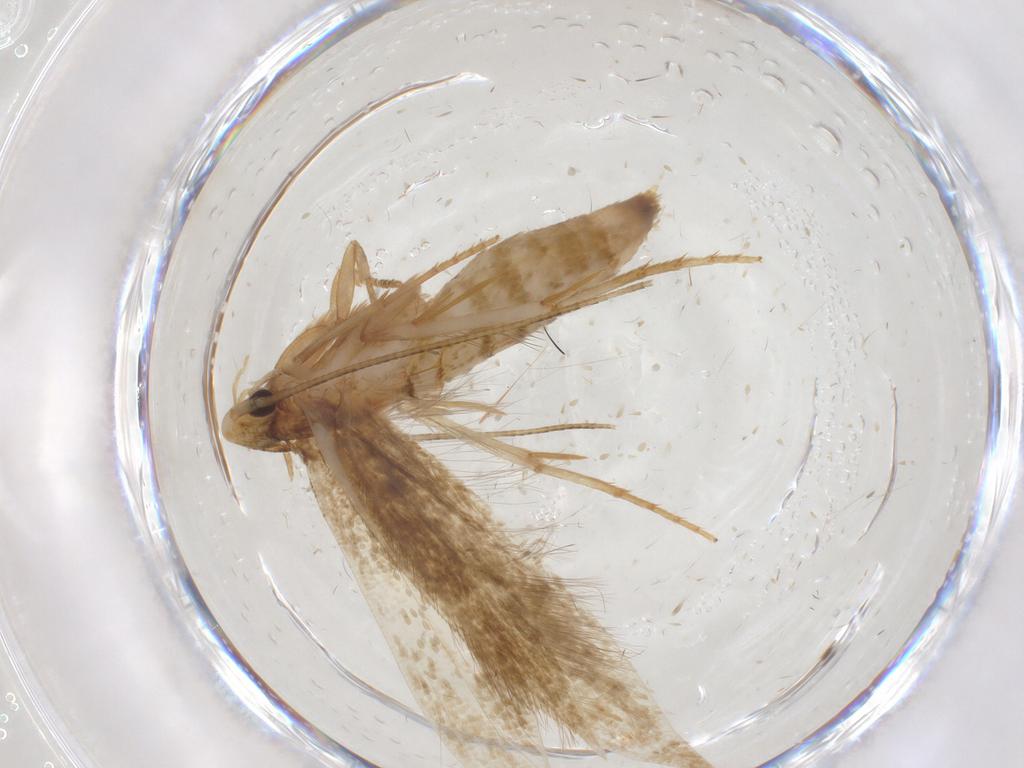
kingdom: Animalia
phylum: Arthropoda
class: Insecta
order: Lepidoptera
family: Tineidae
